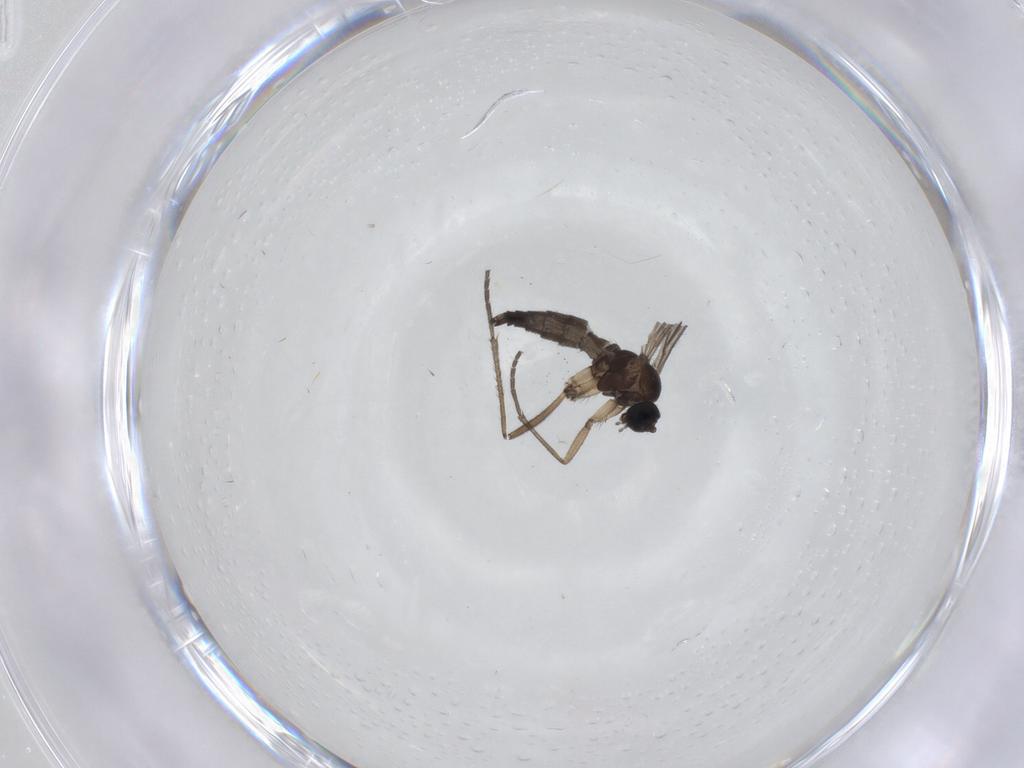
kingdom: Animalia
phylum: Arthropoda
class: Insecta
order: Diptera
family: Sciaridae
